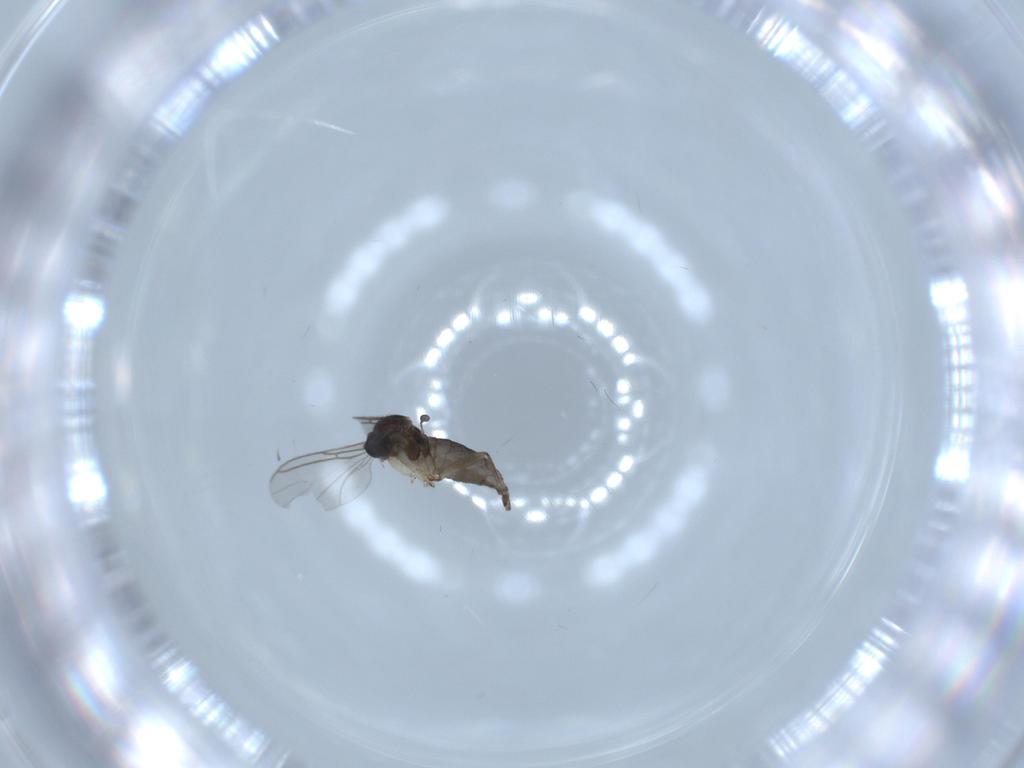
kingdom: Animalia
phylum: Arthropoda
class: Insecta
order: Diptera
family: Sciaridae
